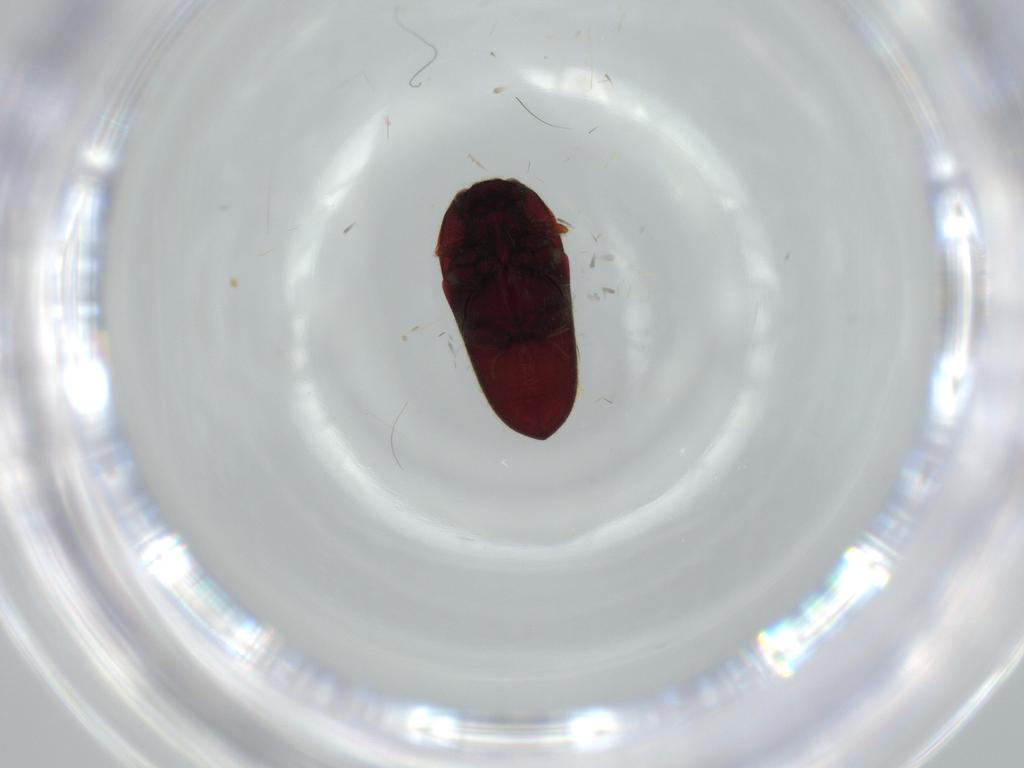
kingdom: Animalia
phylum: Arthropoda
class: Insecta
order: Coleoptera
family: Throscidae
